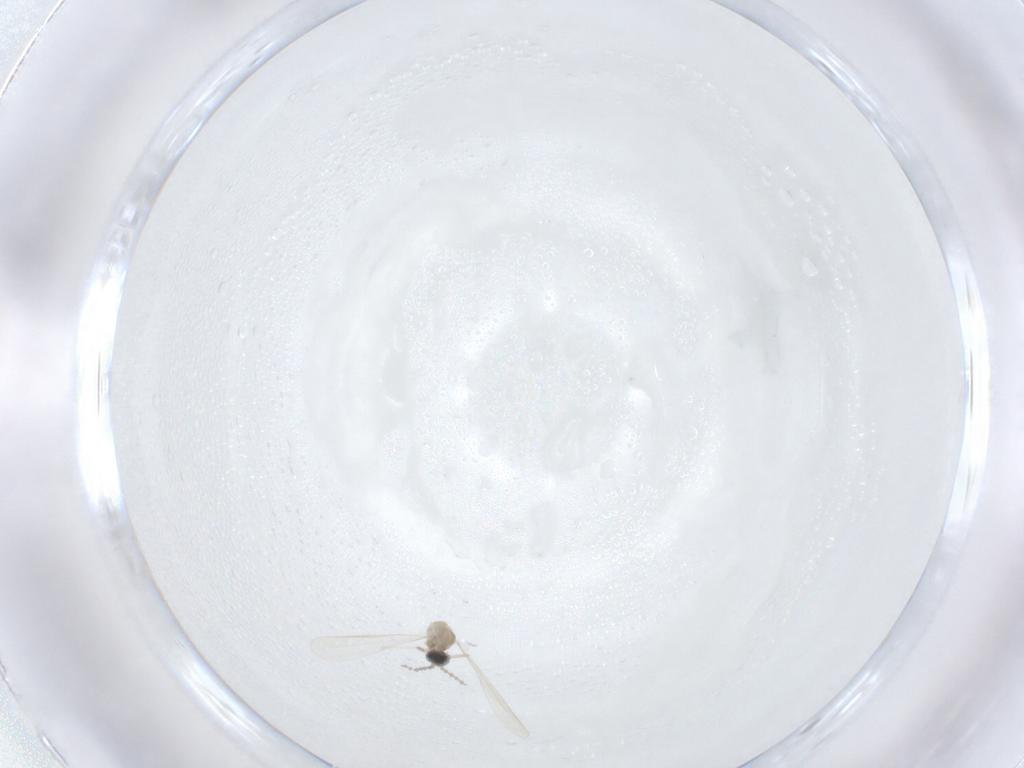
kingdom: Animalia
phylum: Arthropoda
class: Insecta
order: Diptera
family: Cecidomyiidae
